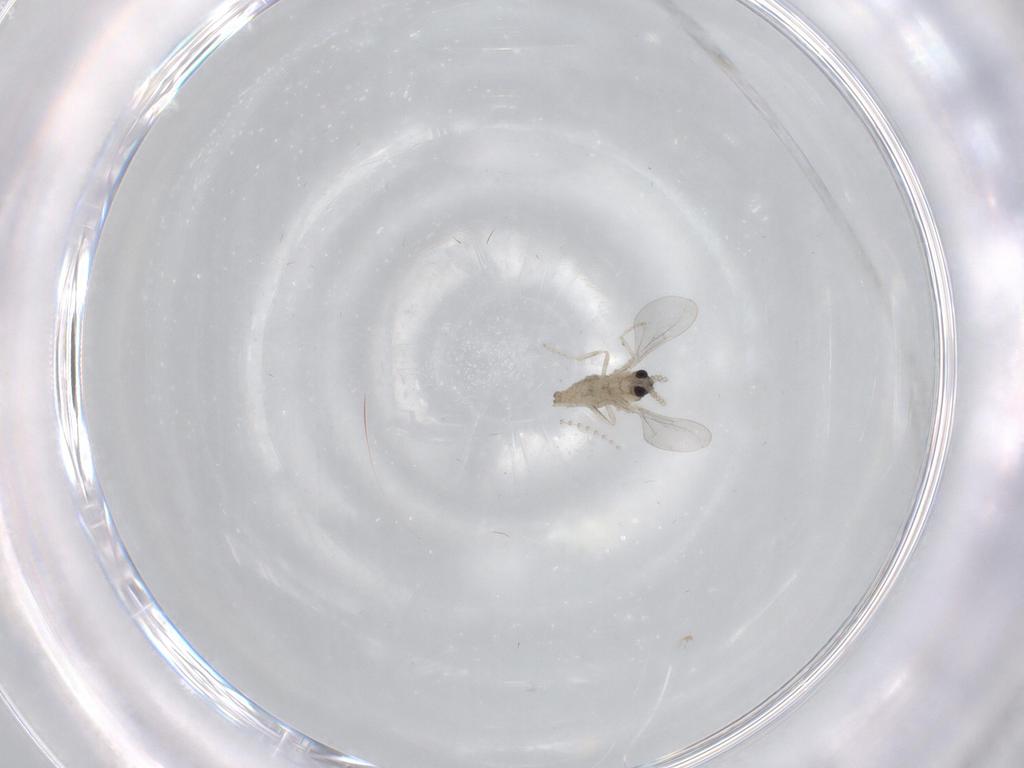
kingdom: Animalia
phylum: Arthropoda
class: Insecta
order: Diptera
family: Cecidomyiidae
